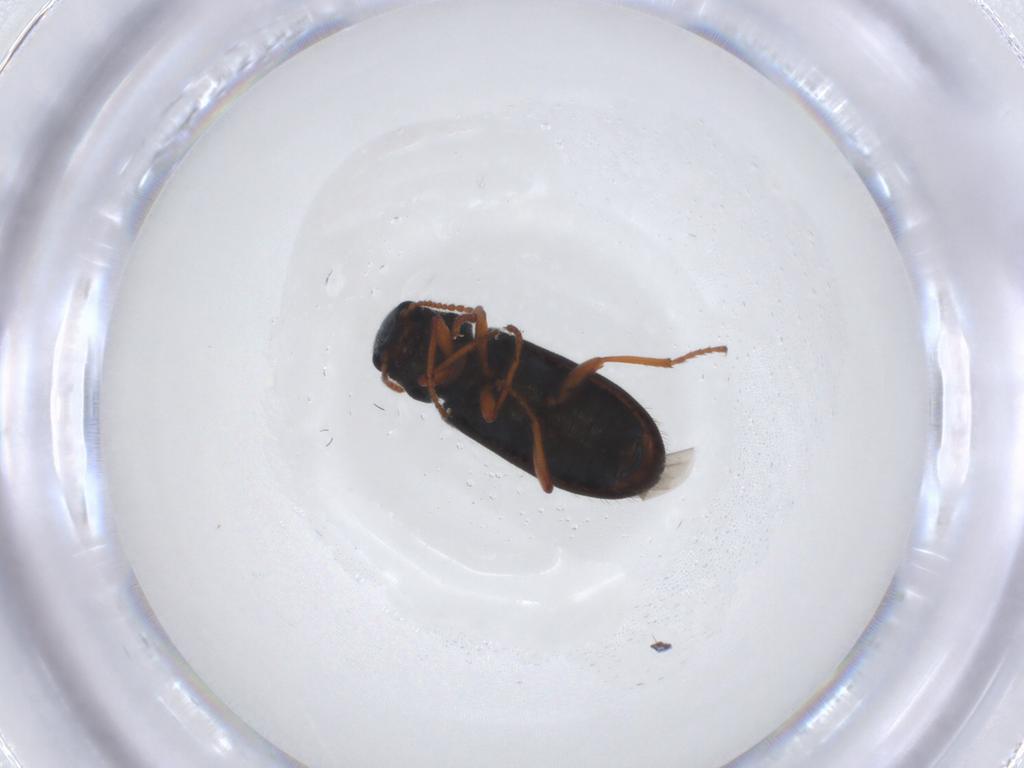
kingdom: Animalia
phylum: Arthropoda
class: Insecta
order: Coleoptera
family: Melyridae
